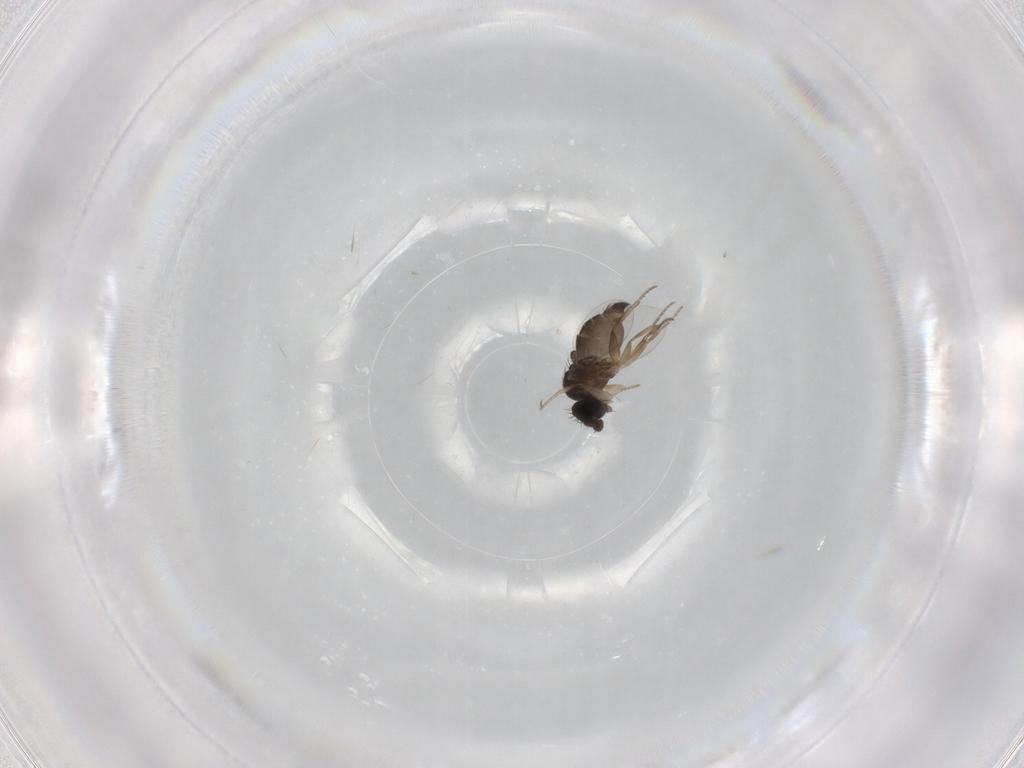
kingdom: Animalia
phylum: Arthropoda
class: Insecta
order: Diptera
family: Phoridae
